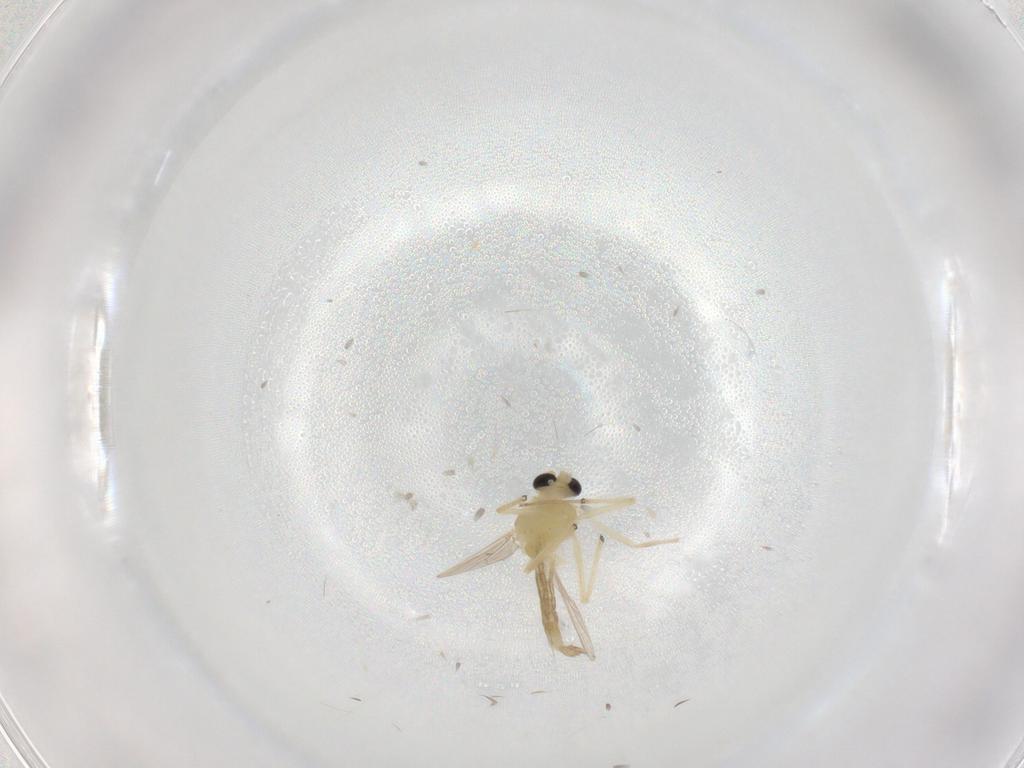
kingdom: Animalia
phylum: Arthropoda
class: Insecta
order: Diptera
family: Chironomidae
